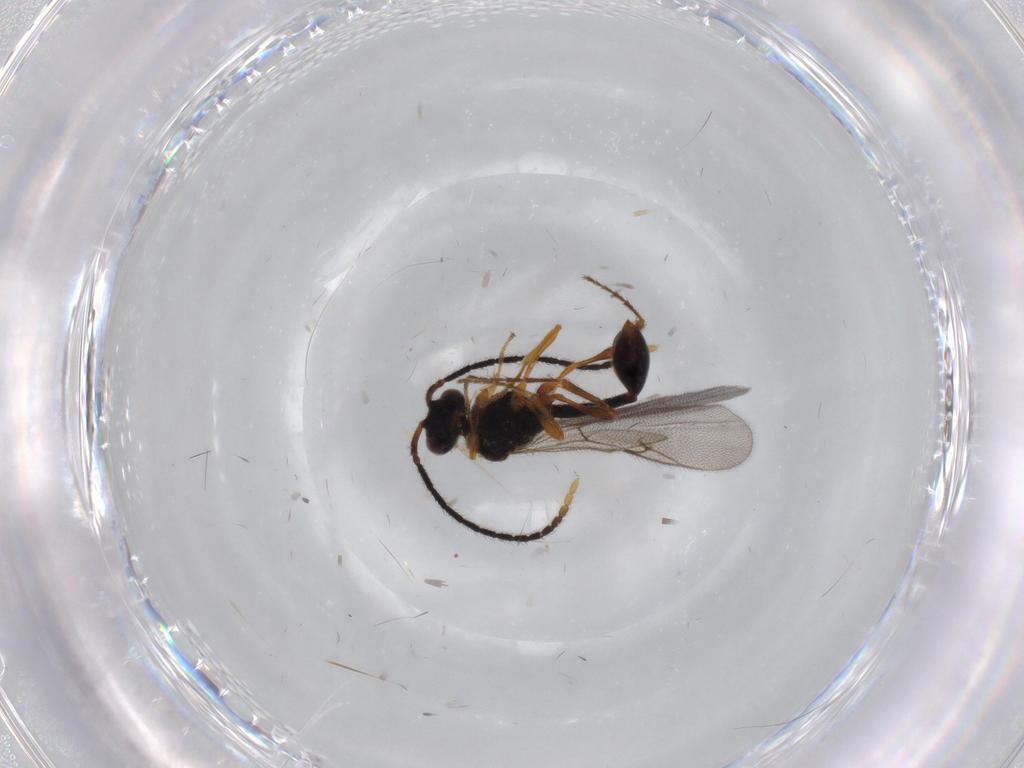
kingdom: Animalia
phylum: Arthropoda
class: Insecta
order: Hymenoptera
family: Diapriidae
